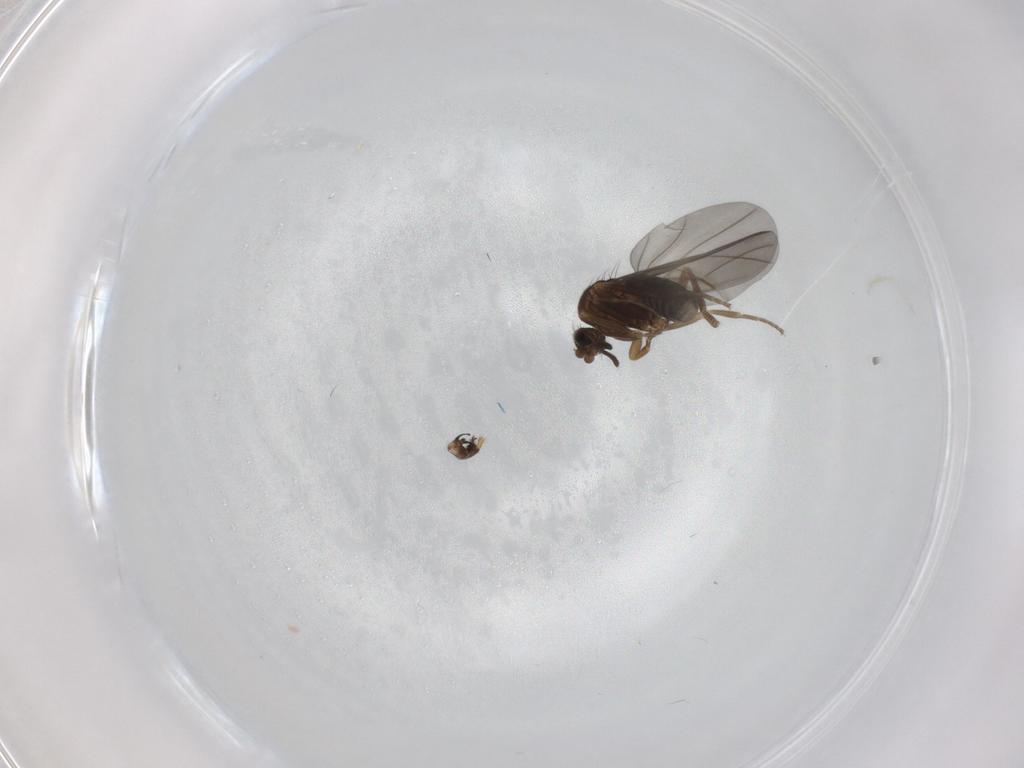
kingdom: Animalia
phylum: Arthropoda
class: Insecta
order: Diptera
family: Phoridae
